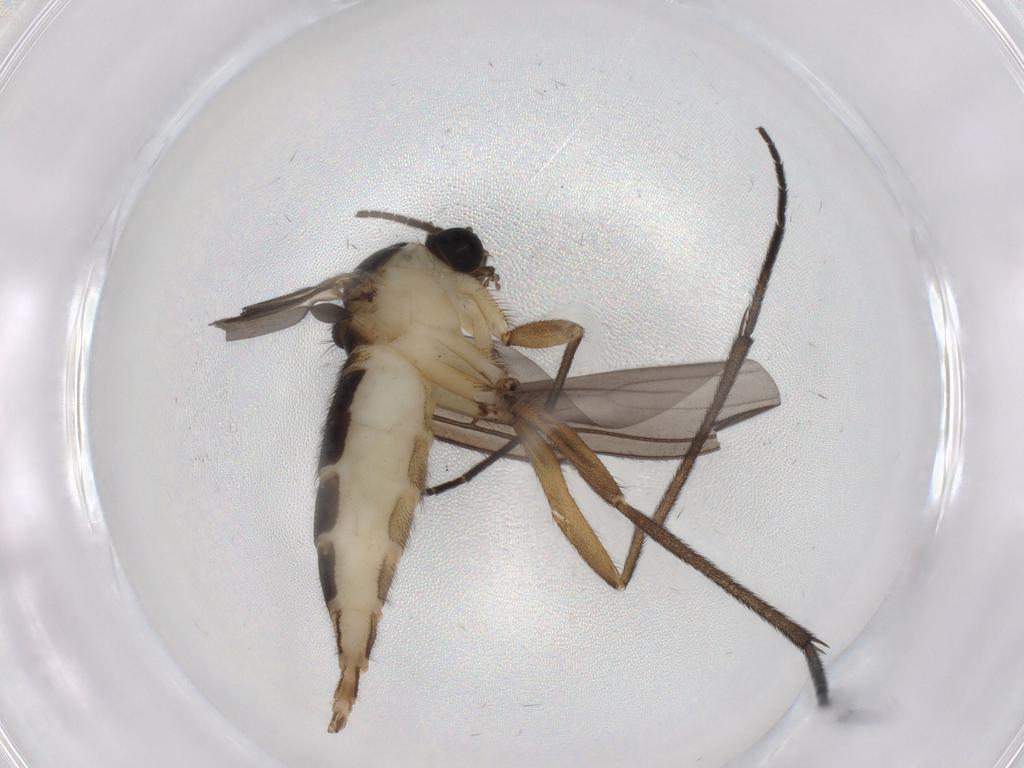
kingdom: Animalia
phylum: Arthropoda
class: Insecta
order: Diptera
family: Sciaridae
